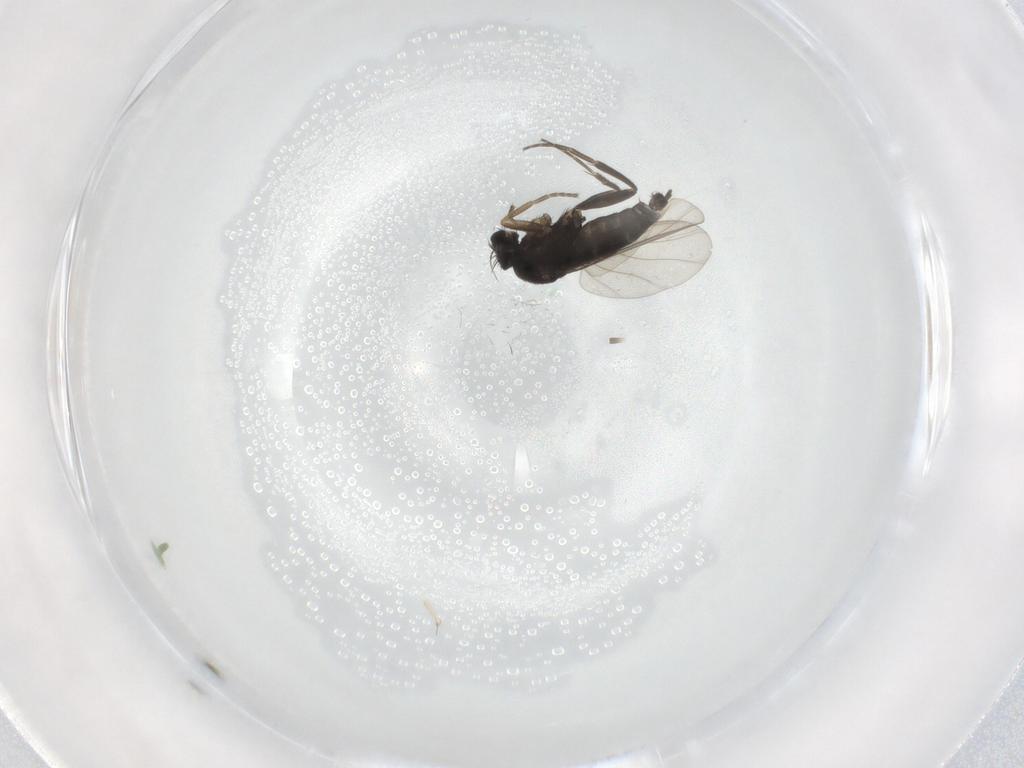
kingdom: Animalia
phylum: Arthropoda
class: Insecta
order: Diptera
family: Phoridae
